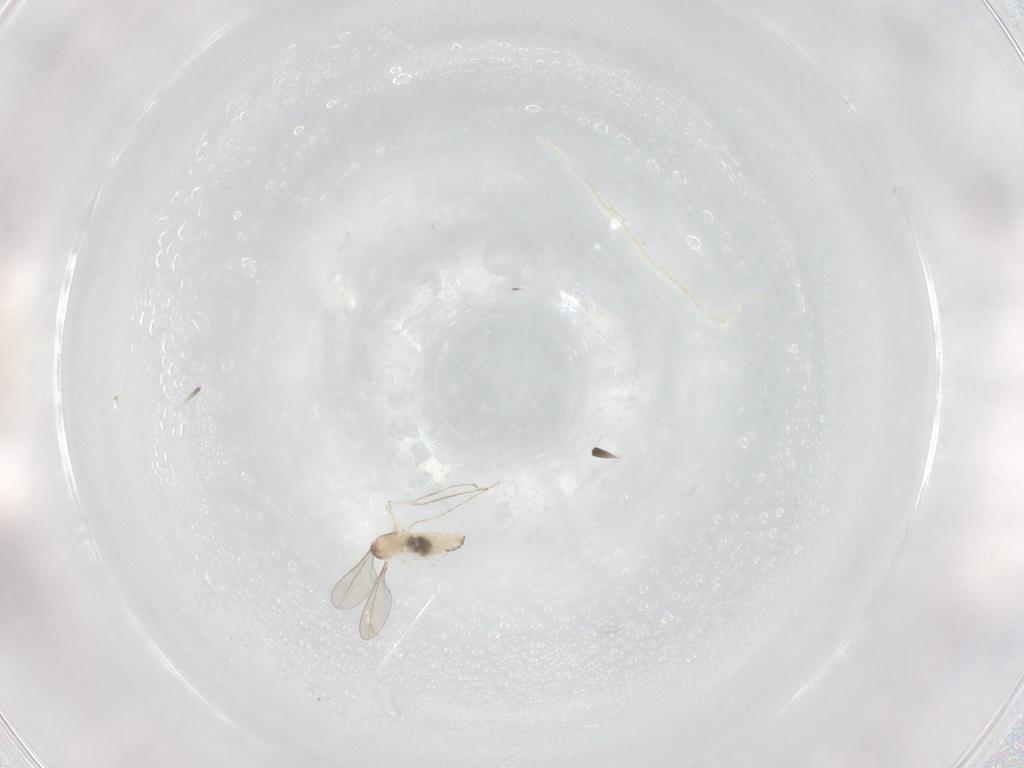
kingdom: Animalia
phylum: Arthropoda
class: Insecta
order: Diptera
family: Cecidomyiidae
